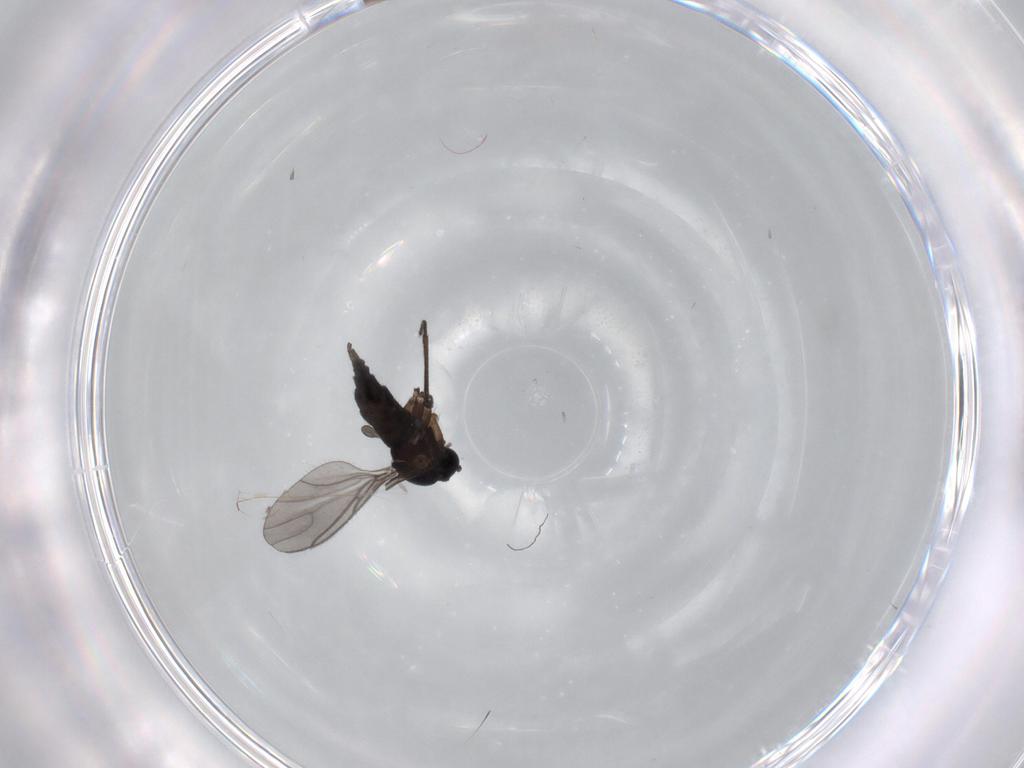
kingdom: Animalia
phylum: Arthropoda
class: Insecta
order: Diptera
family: Sciaridae
